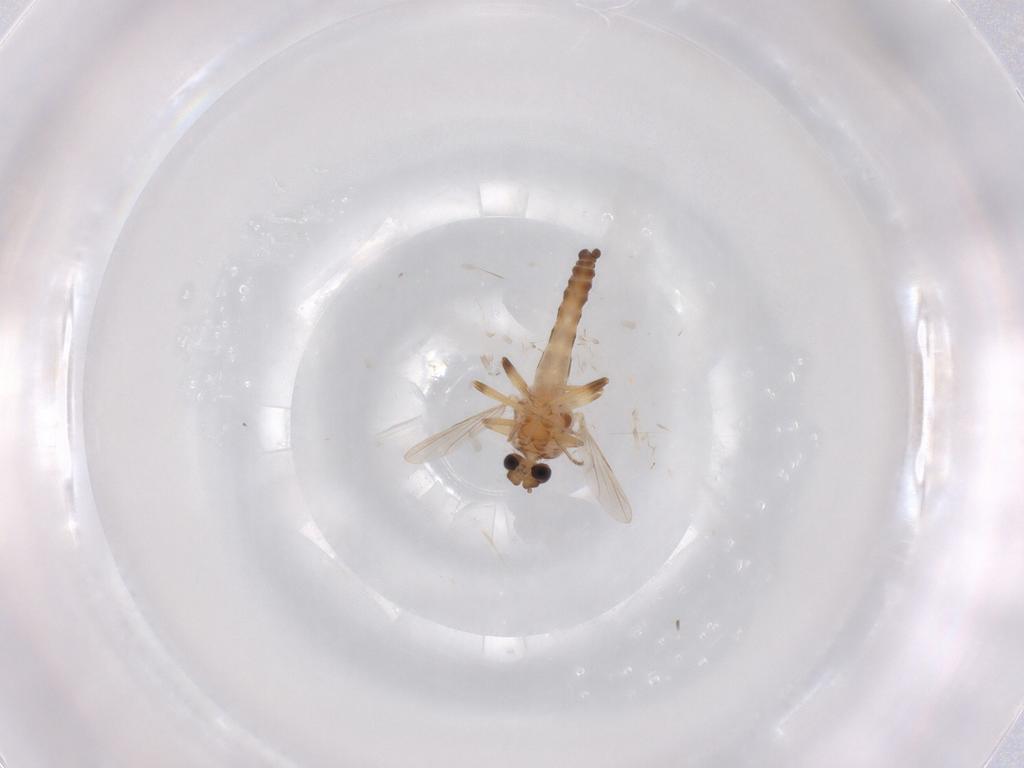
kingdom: Animalia
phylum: Arthropoda
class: Insecta
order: Diptera
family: Ceratopogonidae
